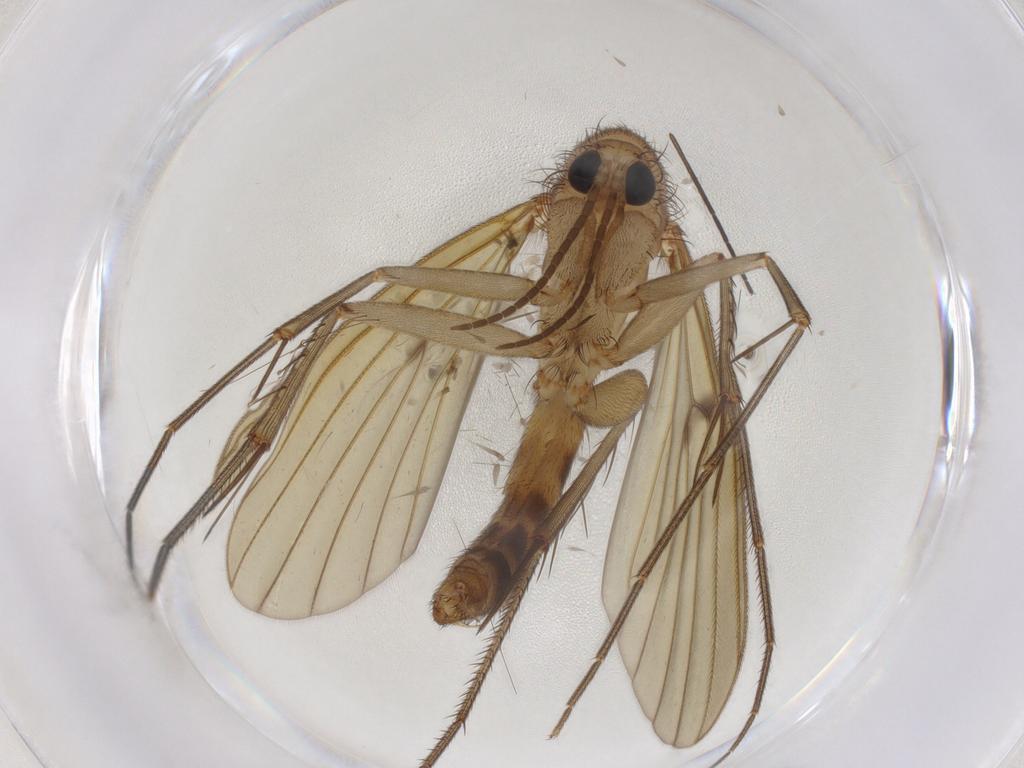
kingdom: Animalia
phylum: Arthropoda
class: Insecta
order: Diptera
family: Mycetophilidae
